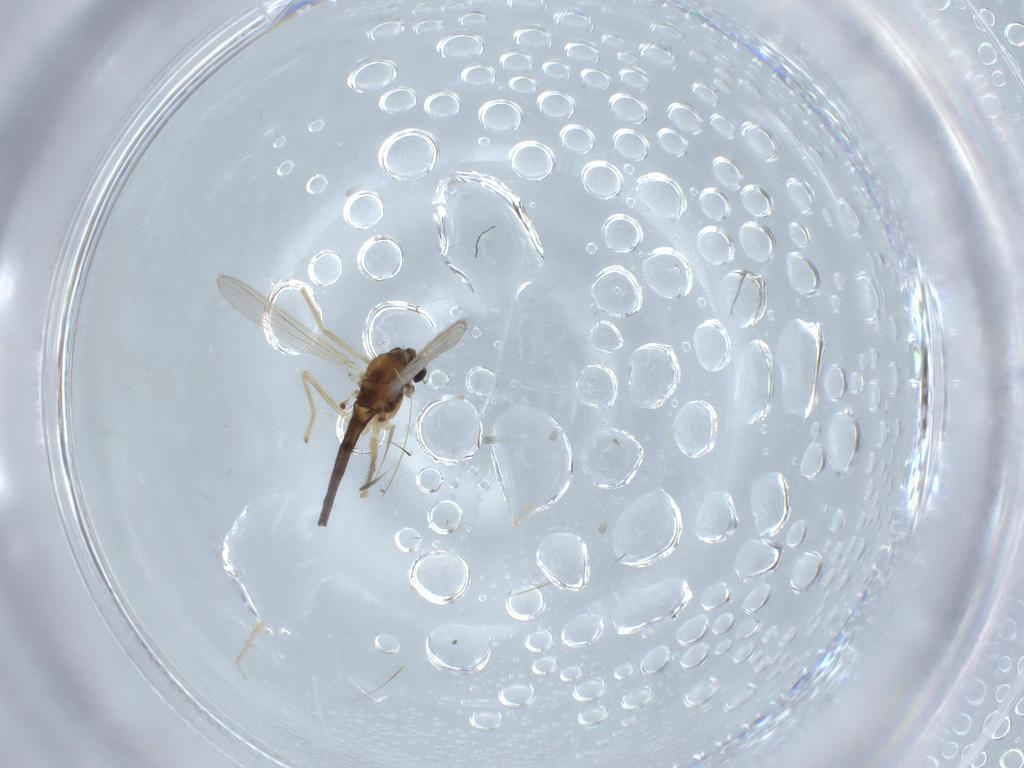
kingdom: Animalia
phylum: Arthropoda
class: Insecta
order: Diptera
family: Chironomidae
